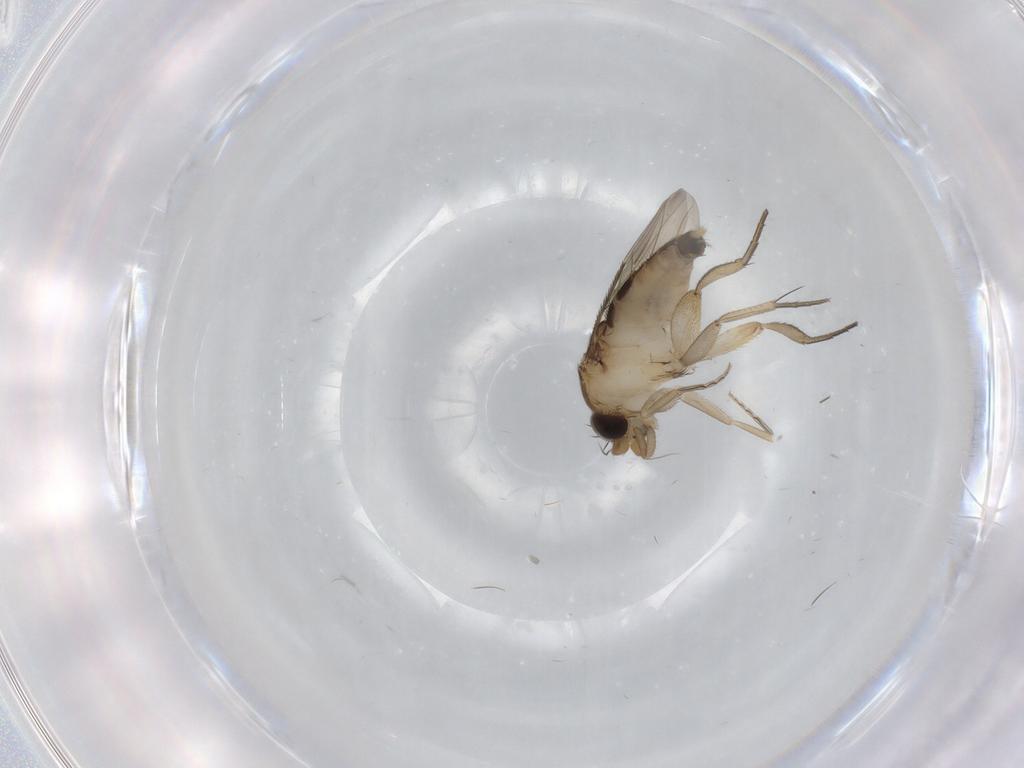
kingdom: Animalia
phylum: Arthropoda
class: Insecta
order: Diptera
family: Phoridae
